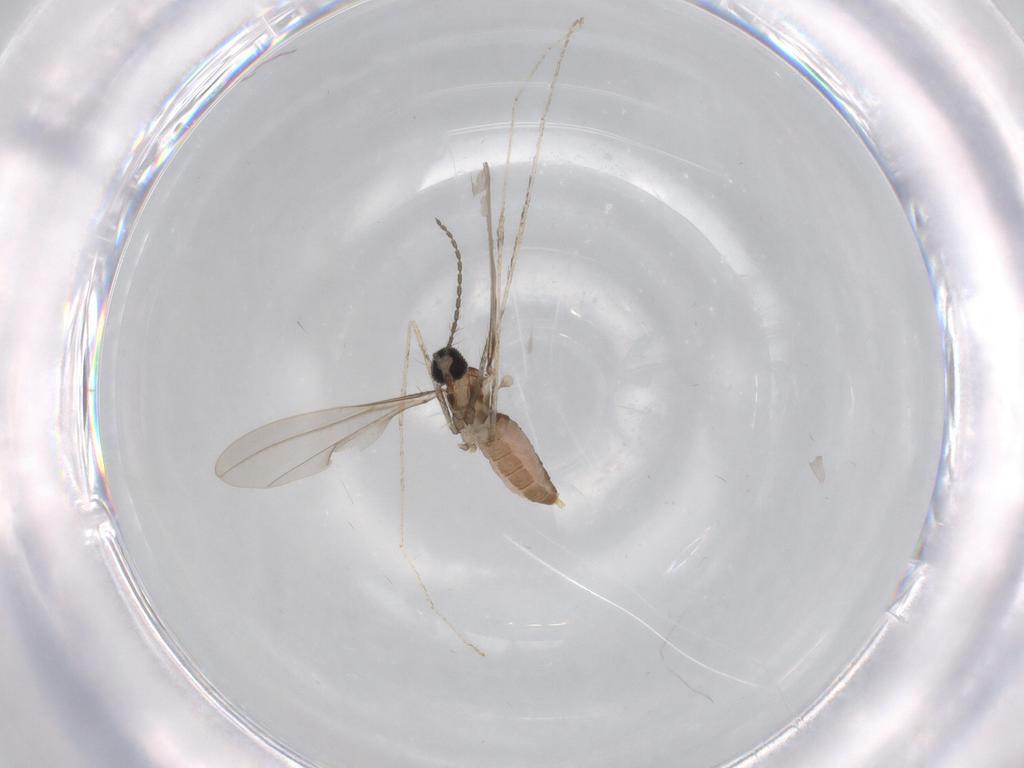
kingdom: Animalia
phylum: Arthropoda
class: Insecta
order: Diptera
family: Cecidomyiidae
